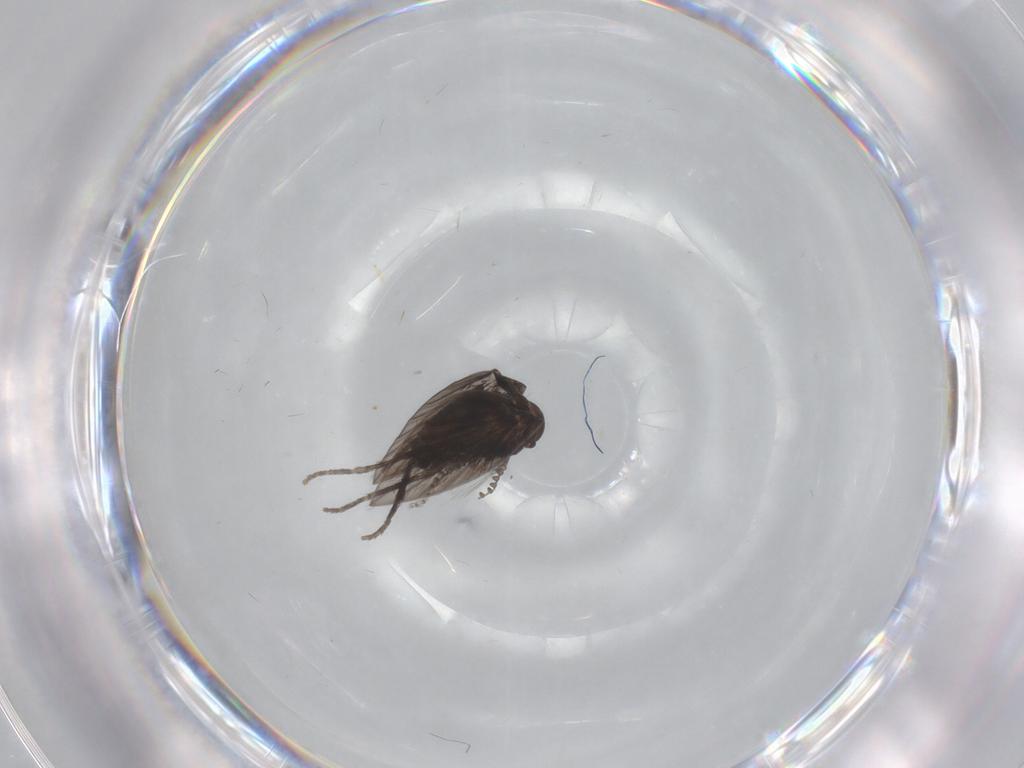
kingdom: Animalia
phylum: Arthropoda
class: Insecta
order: Diptera
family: Psychodidae
